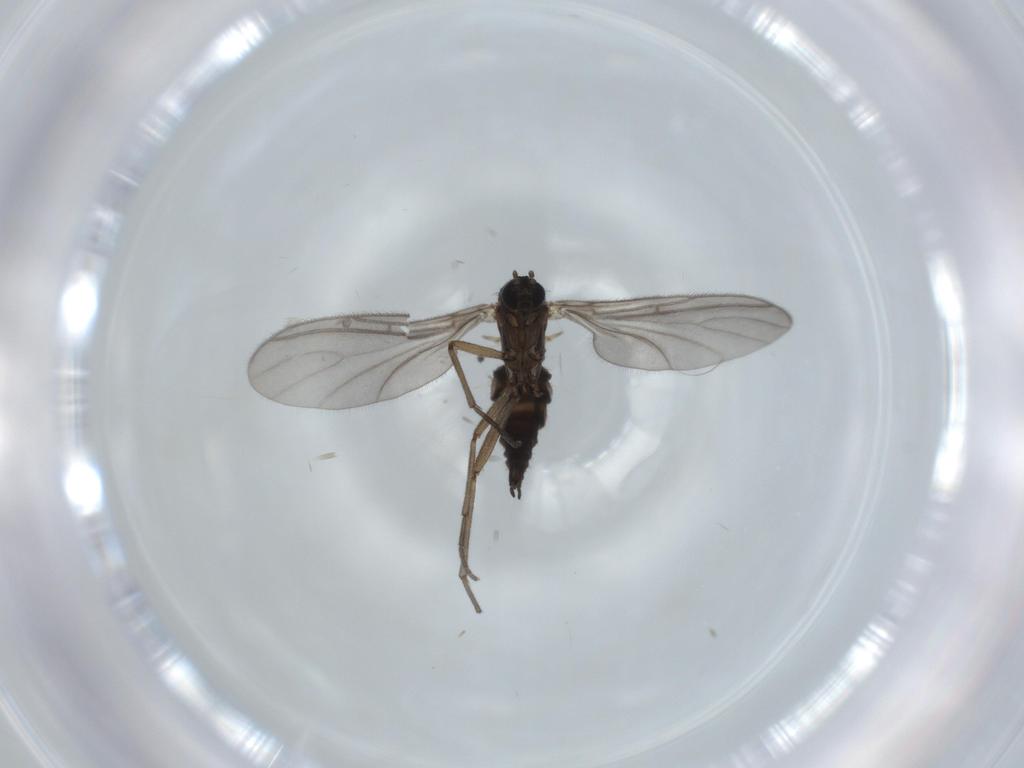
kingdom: Animalia
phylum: Arthropoda
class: Insecta
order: Diptera
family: Sciaridae
